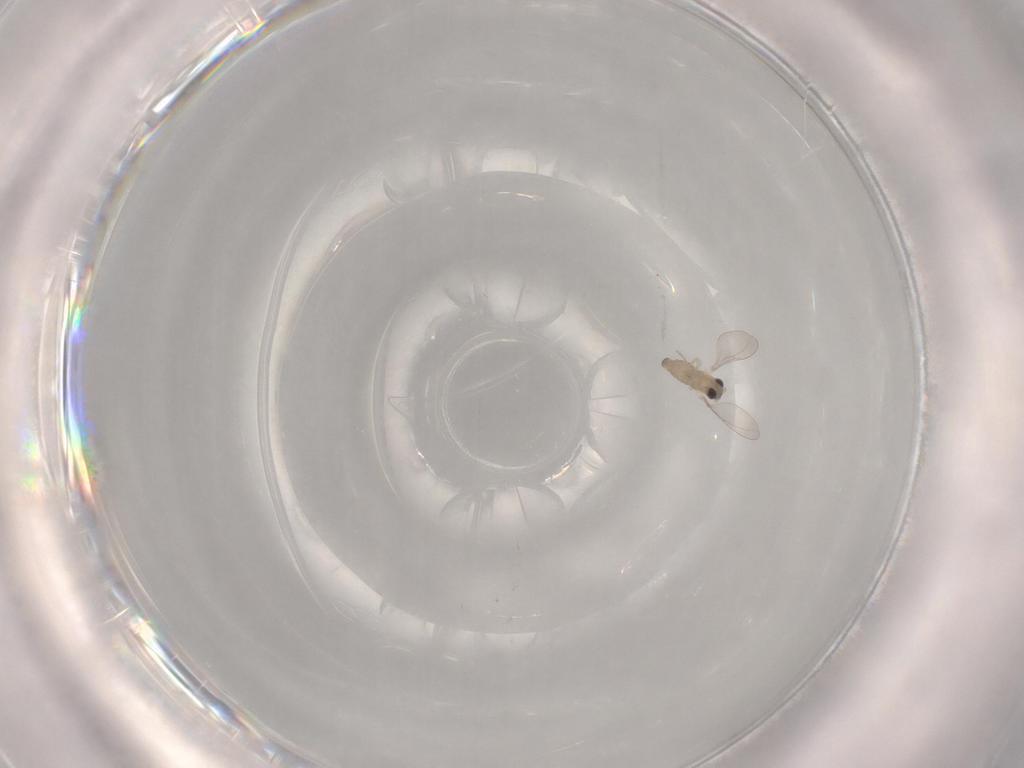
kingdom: Animalia
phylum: Arthropoda
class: Insecta
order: Diptera
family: Cecidomyiidae
